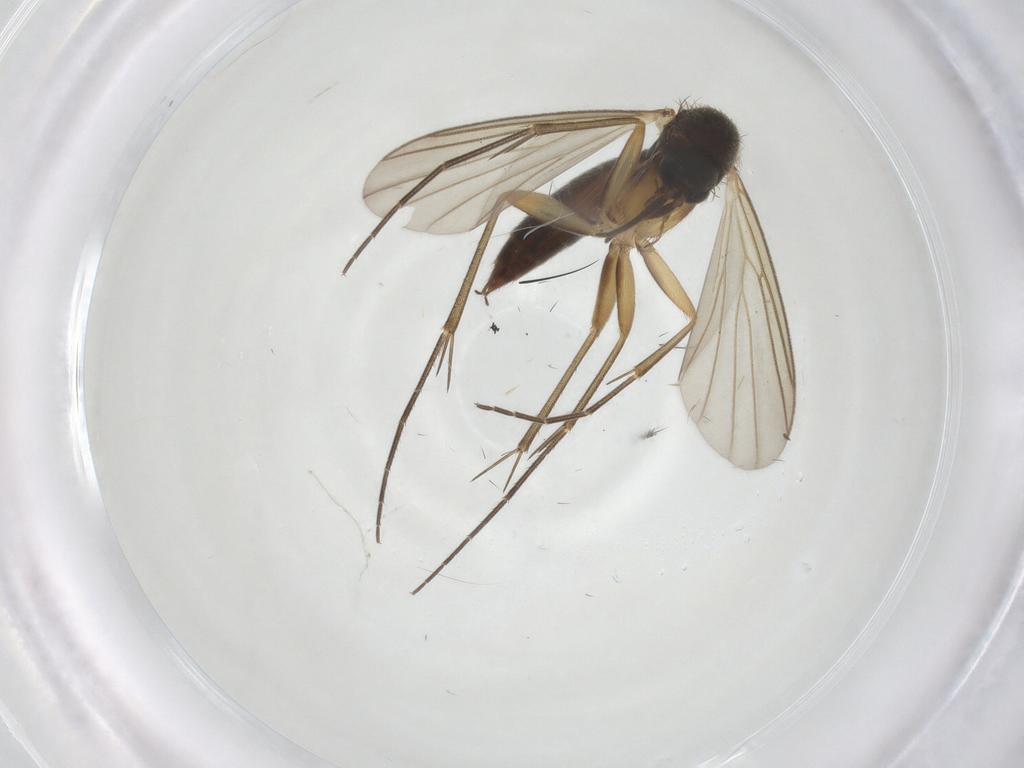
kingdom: Animalia
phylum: Arthropoda
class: Insecta
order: Diptera
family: Mycetophilidae
